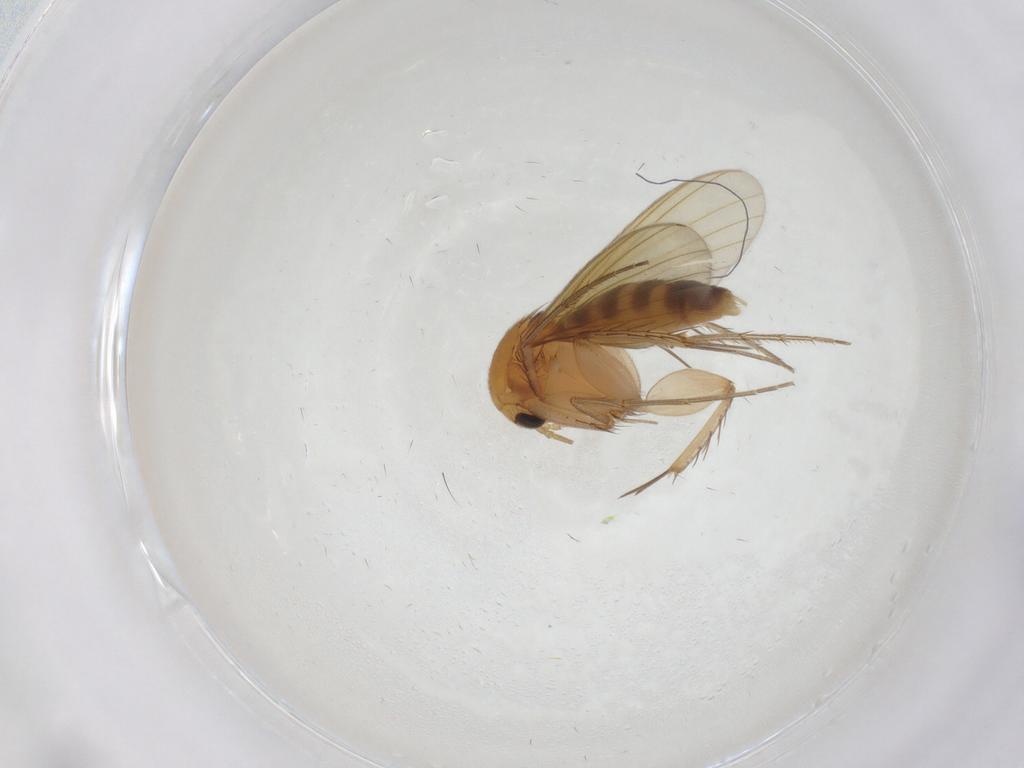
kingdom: Animalia
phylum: Arthropoda
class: Insecta
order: Diptera
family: Mycetophilidae
